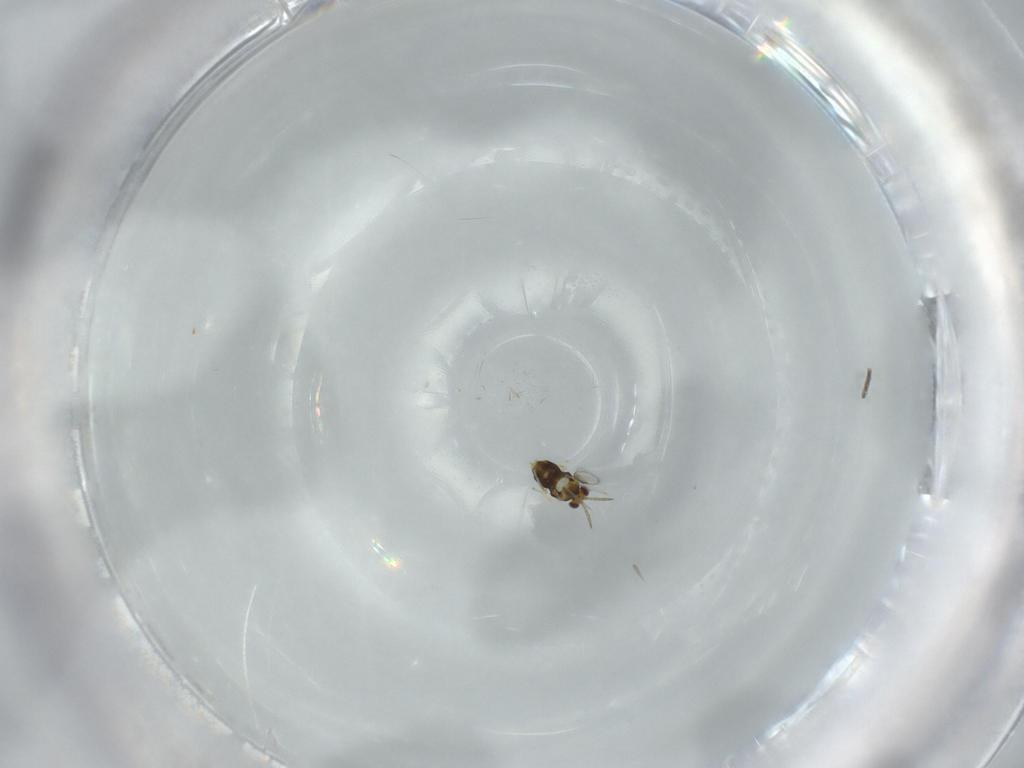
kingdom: Animalia
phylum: Arthropoda
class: Insecta
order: Hymenoptera
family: Aphelinidae
